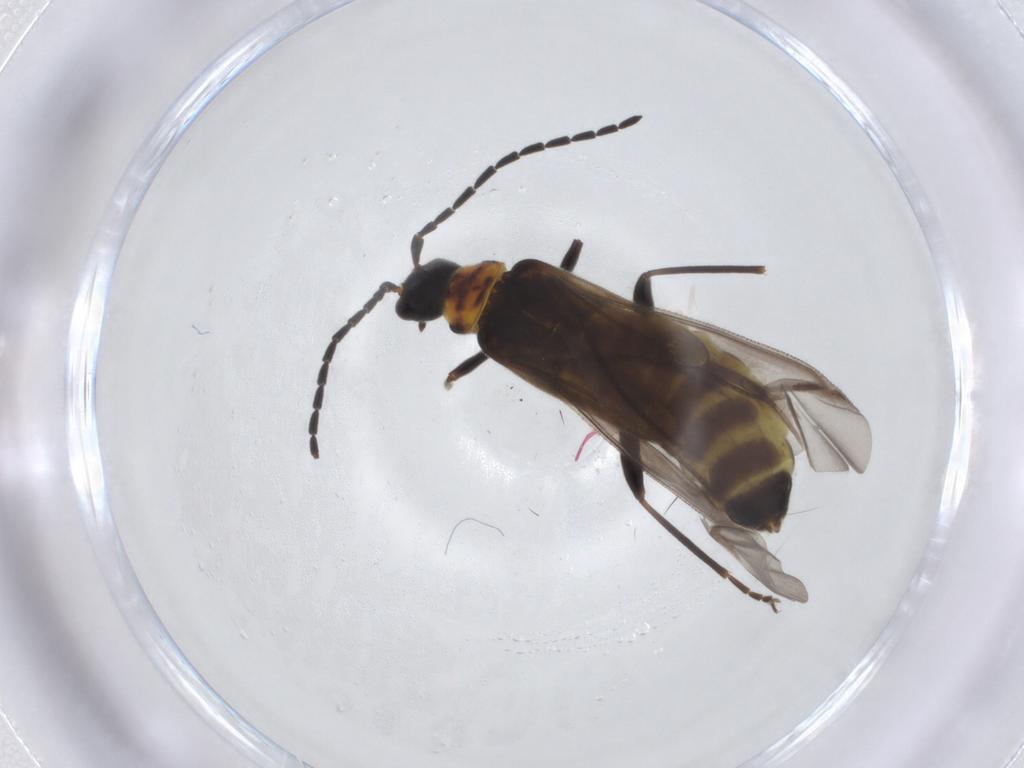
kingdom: Animalia
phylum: Arthropoda
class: Insecta
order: Coleoptera
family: Cantharidae
